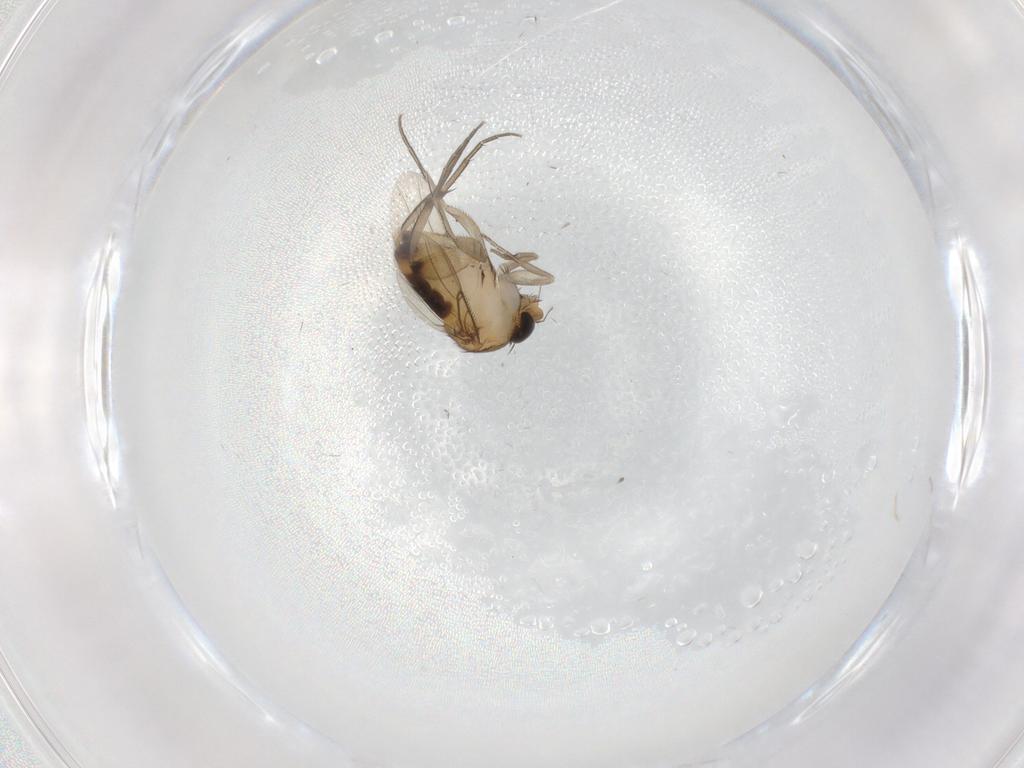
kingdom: Animalia
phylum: Arthropoda
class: Insecta
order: Diptera
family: Phoridae
